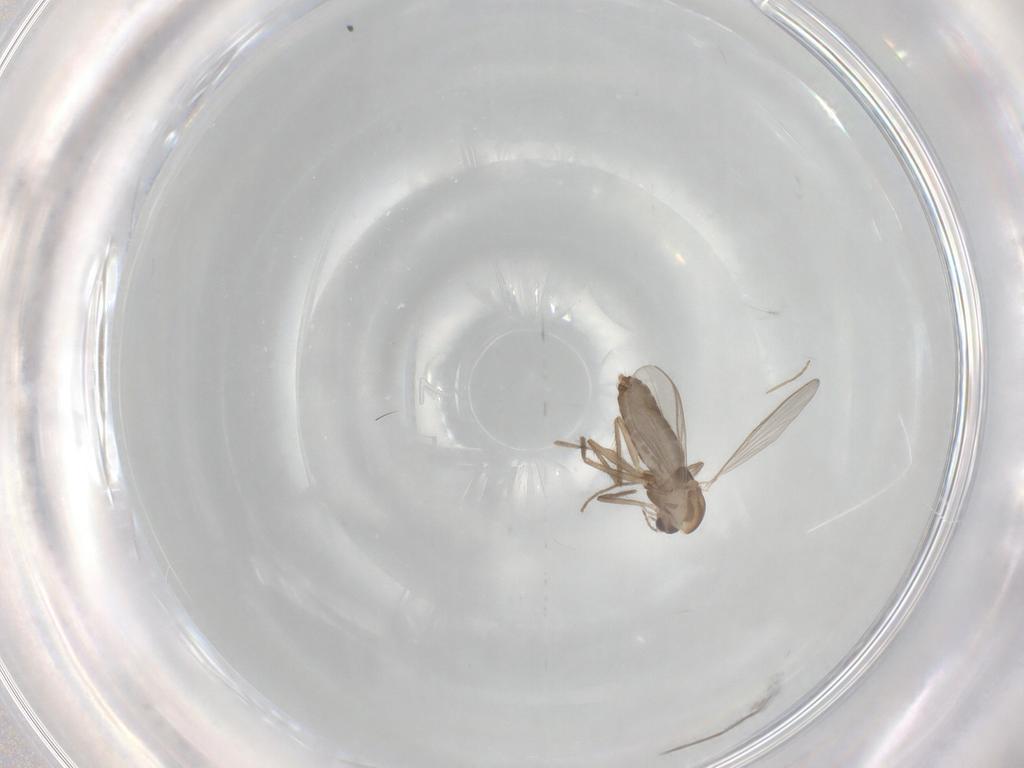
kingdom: Animalia
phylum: Arthropoda
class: Insecta
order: Diptera
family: Chironomidae
